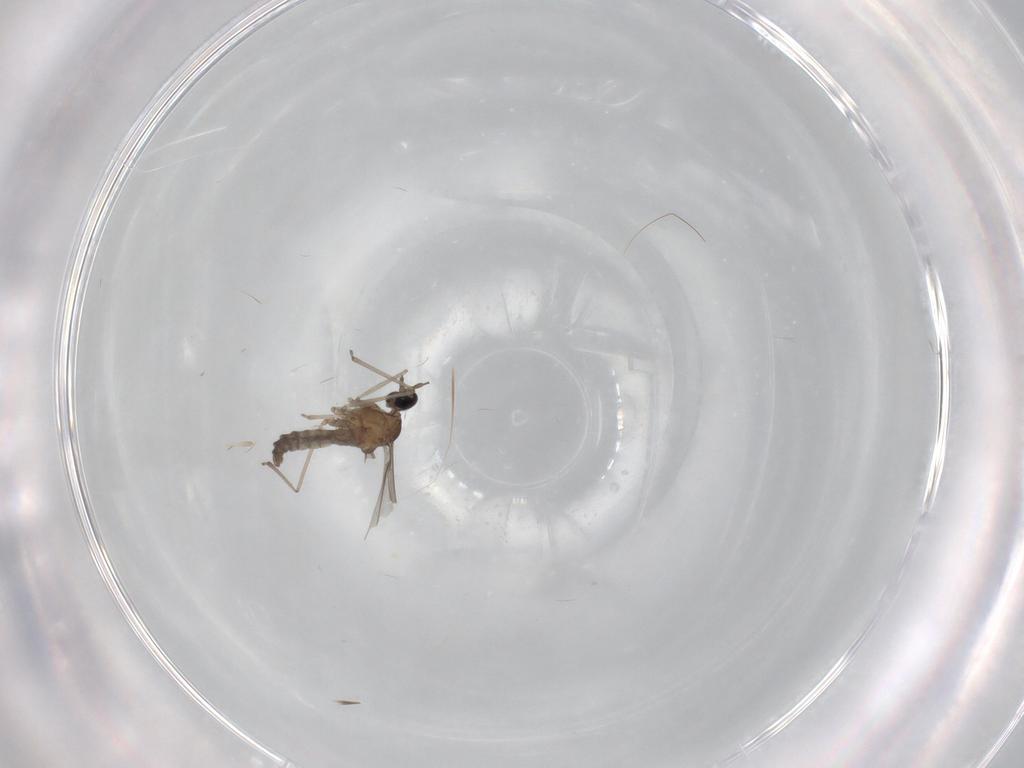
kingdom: Animalia
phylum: Arthropoda
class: Insecta
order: Diptera
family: Cecidomyiidae
